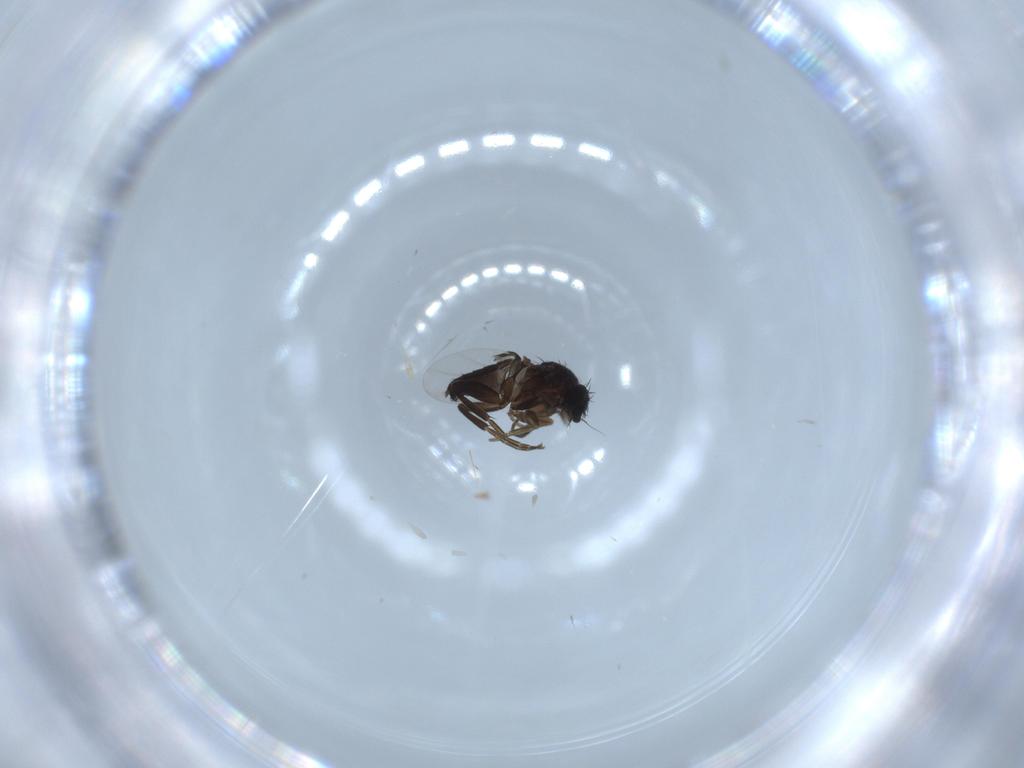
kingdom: Animalia
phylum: Arthropoda
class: Insecta
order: Diptera
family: Phoridae
